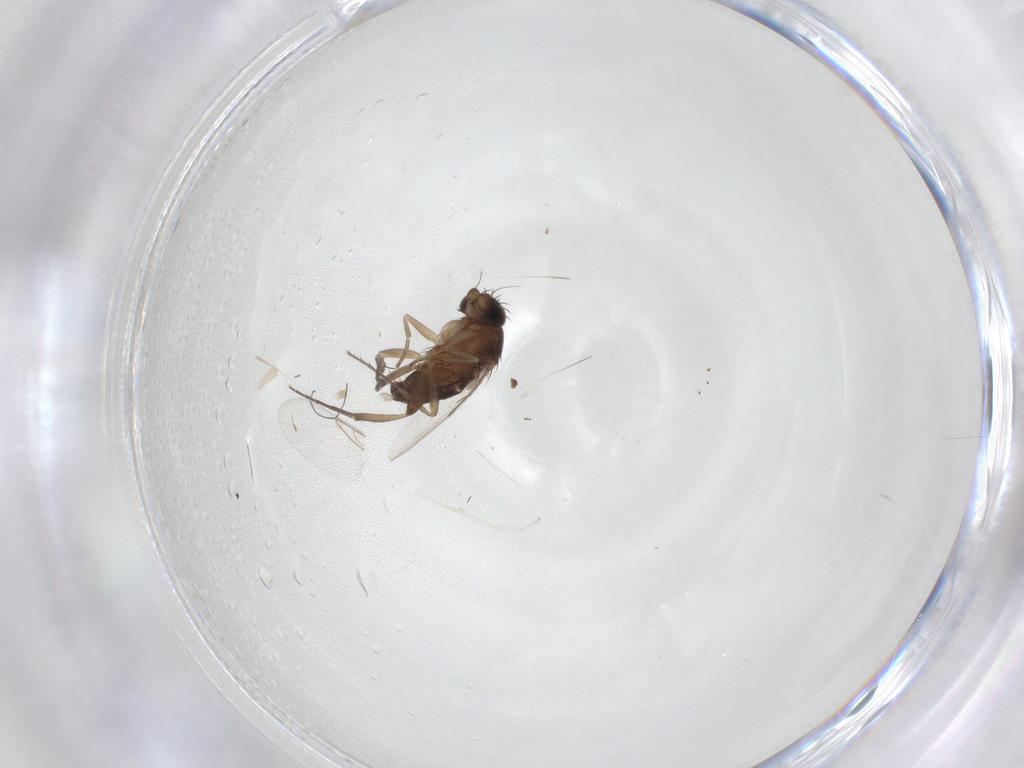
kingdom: Animalia
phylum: Arthropoda
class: Insecta
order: Diptera
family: Phoridae
